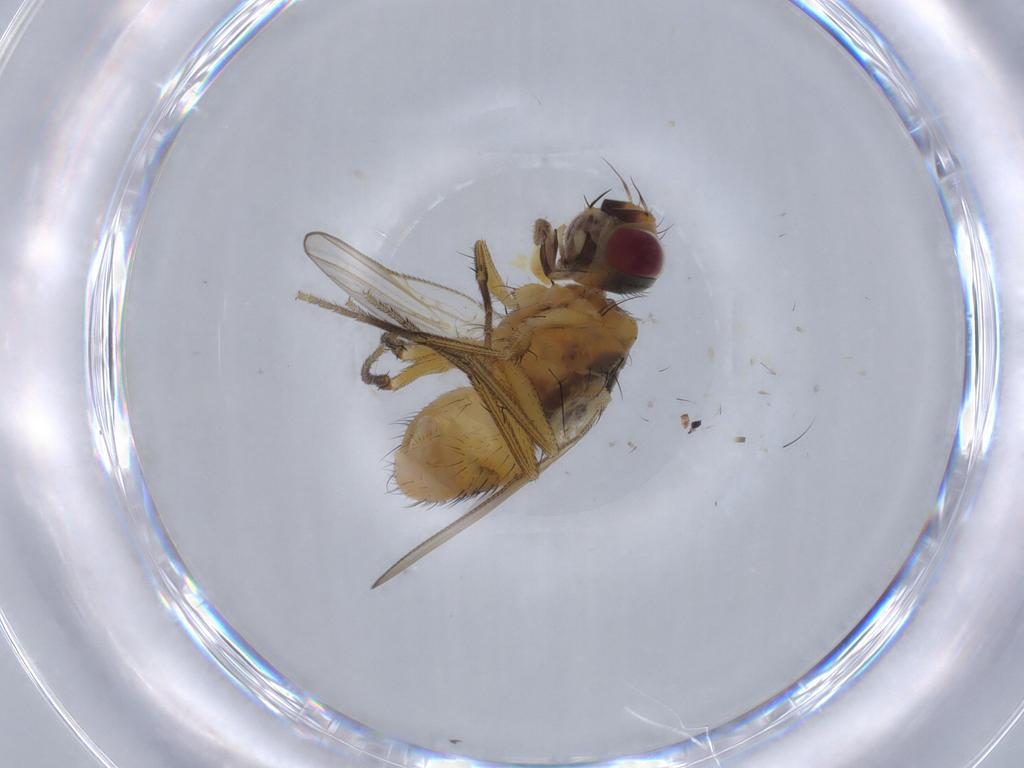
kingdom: Animalia
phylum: Arthropoda
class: Insecta
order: Diptera
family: Muscidae
